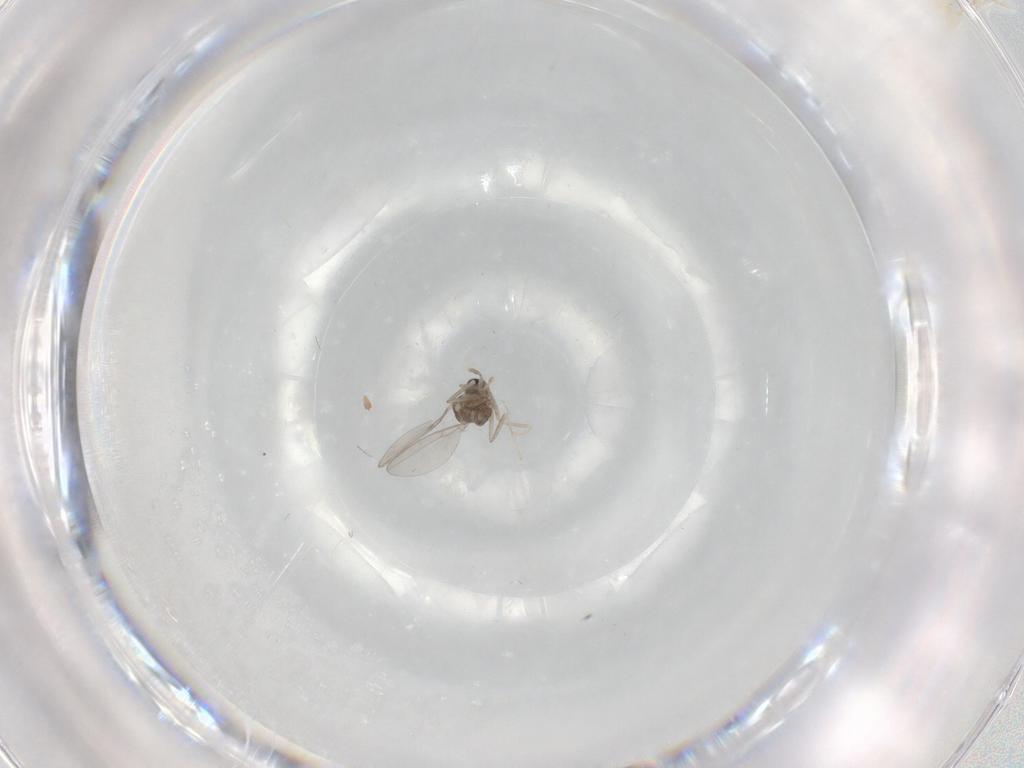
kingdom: Animalia
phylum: Arthropoda
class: Insecta
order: Diptera
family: Cecidomyiidae
